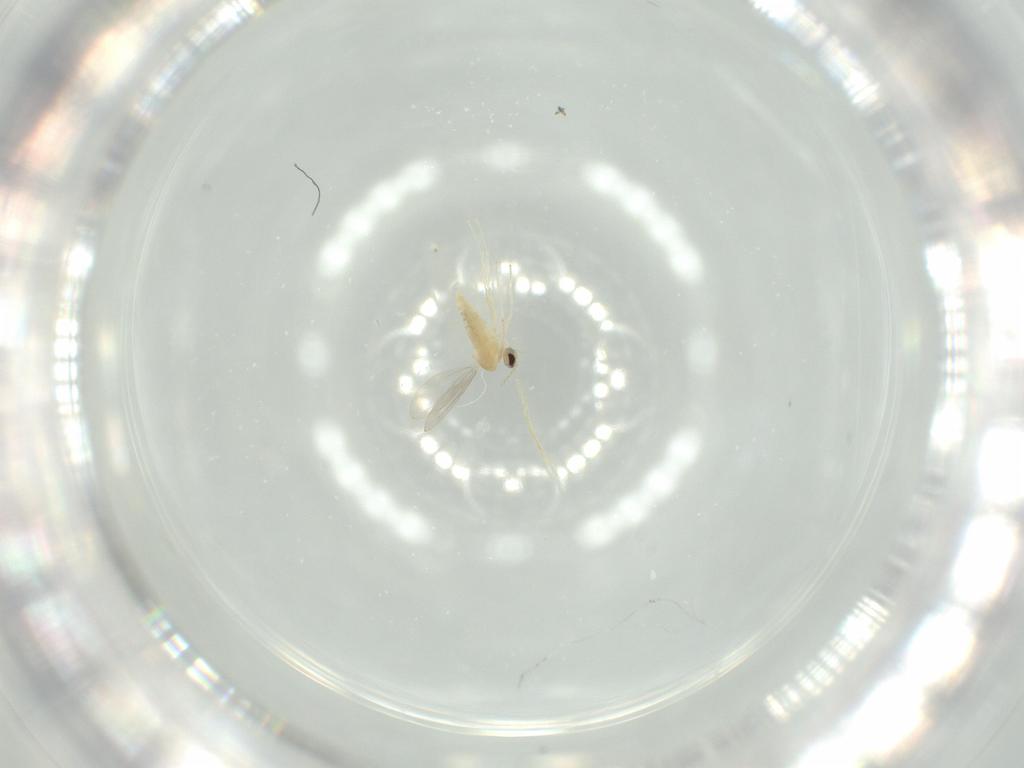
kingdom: Animalia
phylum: Arthropoda
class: Insecta
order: Diptera
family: Cecidomyiidae
